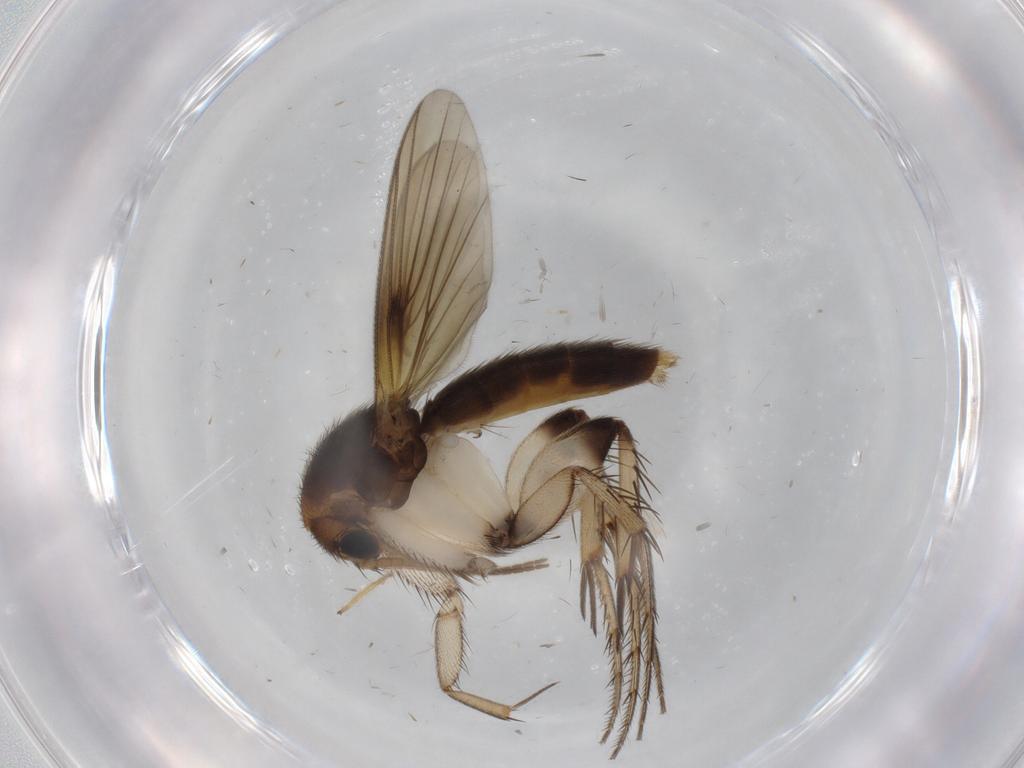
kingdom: Animalia
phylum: Arthropoda
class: Insecta
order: Diptera
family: Mycetophilidae
